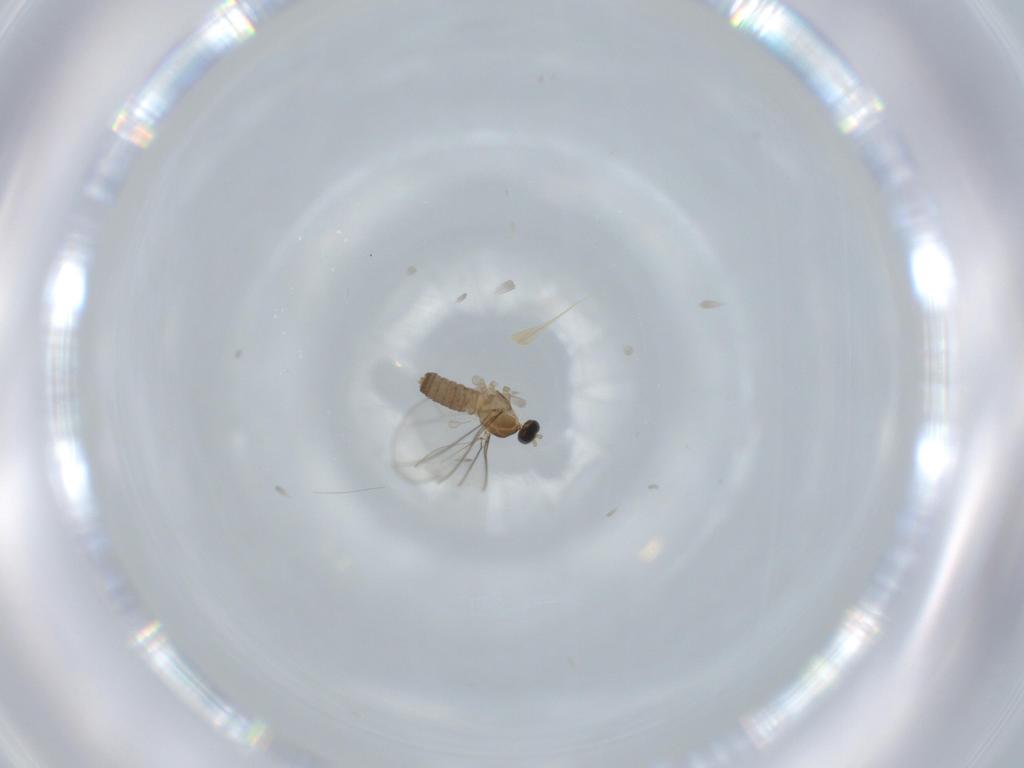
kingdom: Animalia
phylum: Arthropoda
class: Insecta
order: Diptera
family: Cecidomyiidae
